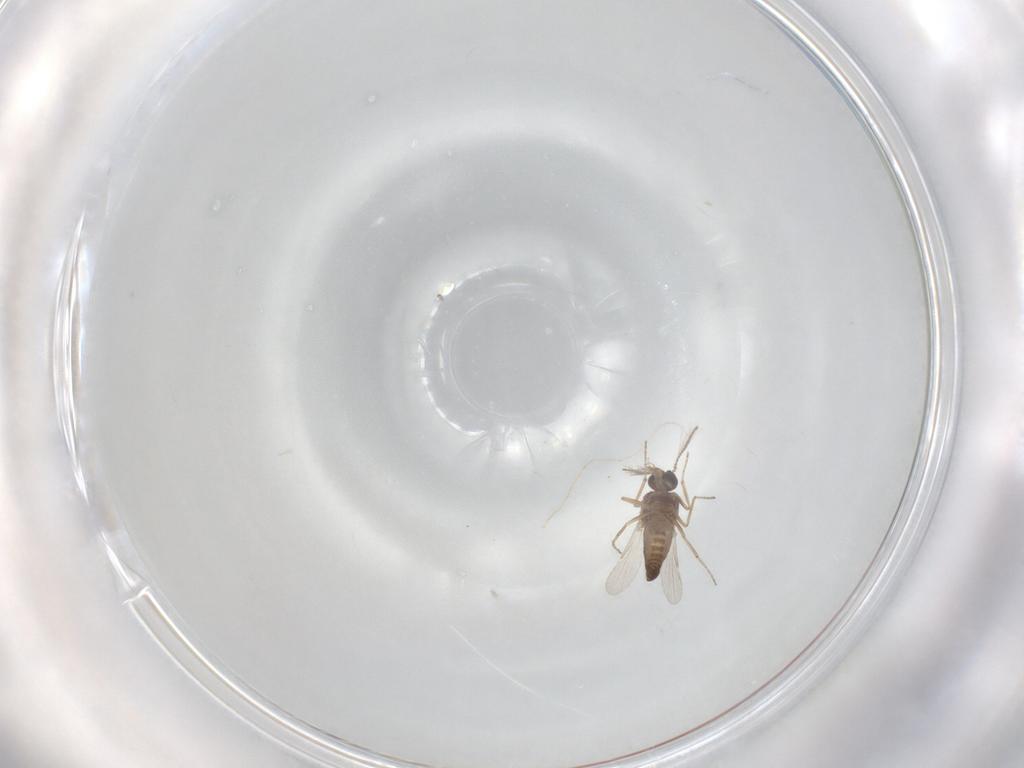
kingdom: Animalia
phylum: Arthropoda
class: Insecta
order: Diptera
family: Ceratopogonidae
